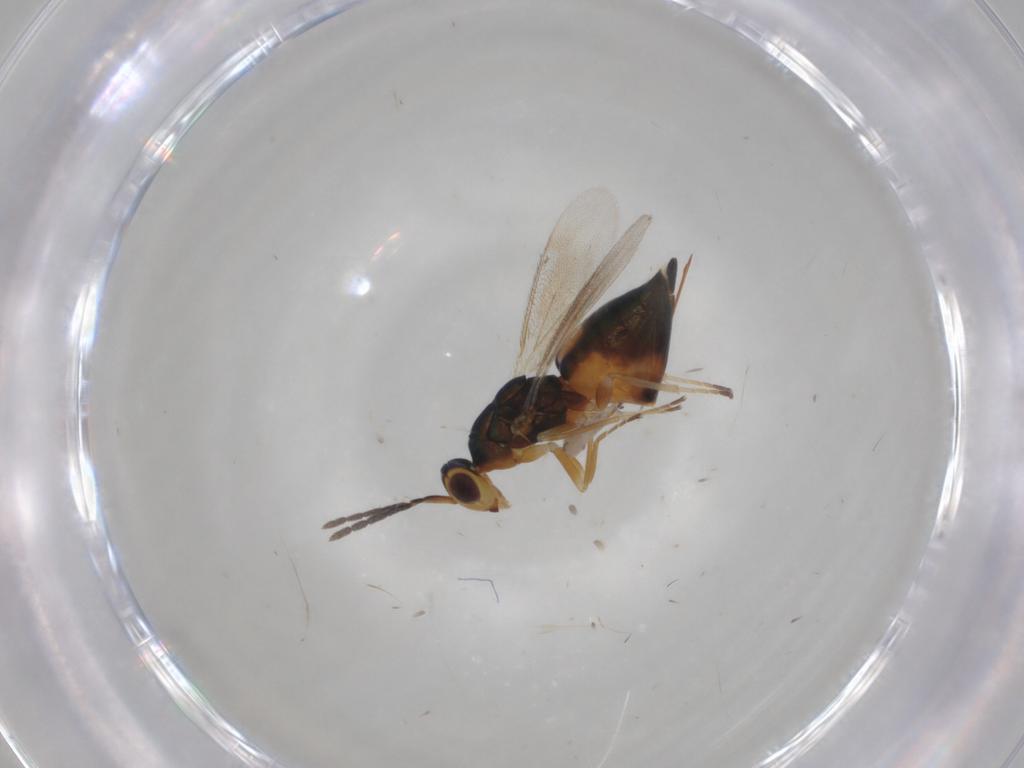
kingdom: Animalia
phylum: Arthropoda
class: Insecta
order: Hymenoptera
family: Eulophidae
